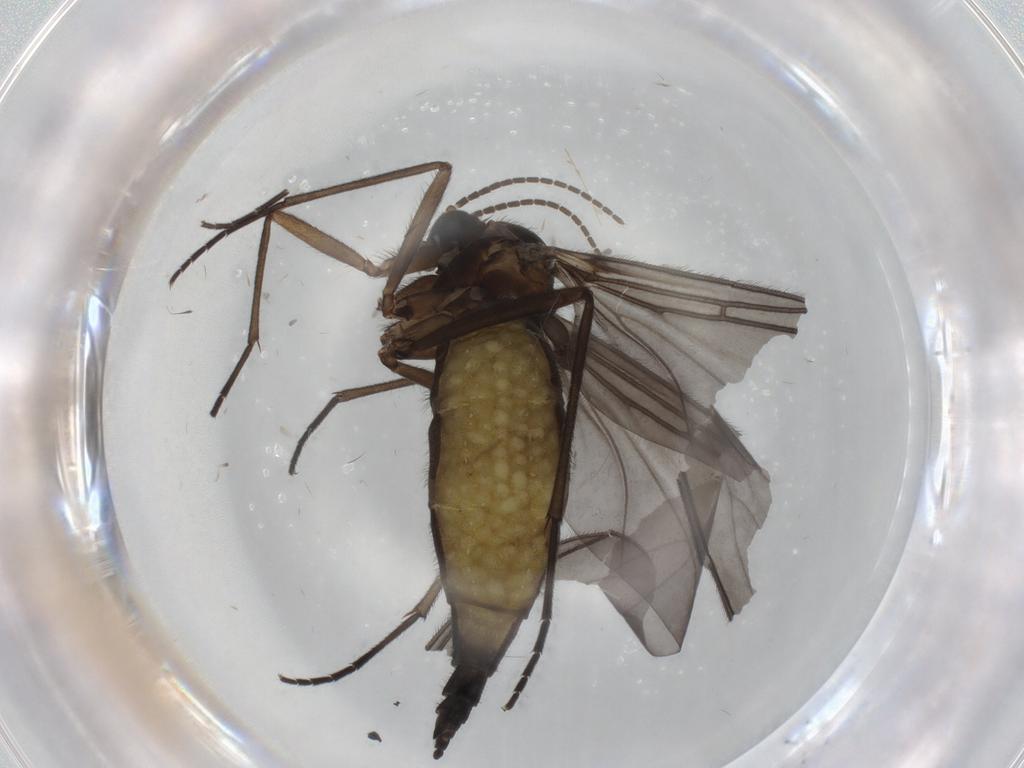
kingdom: Animalia
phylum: Arthropoda
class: Insecta
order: Diptera
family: Sciaridae
